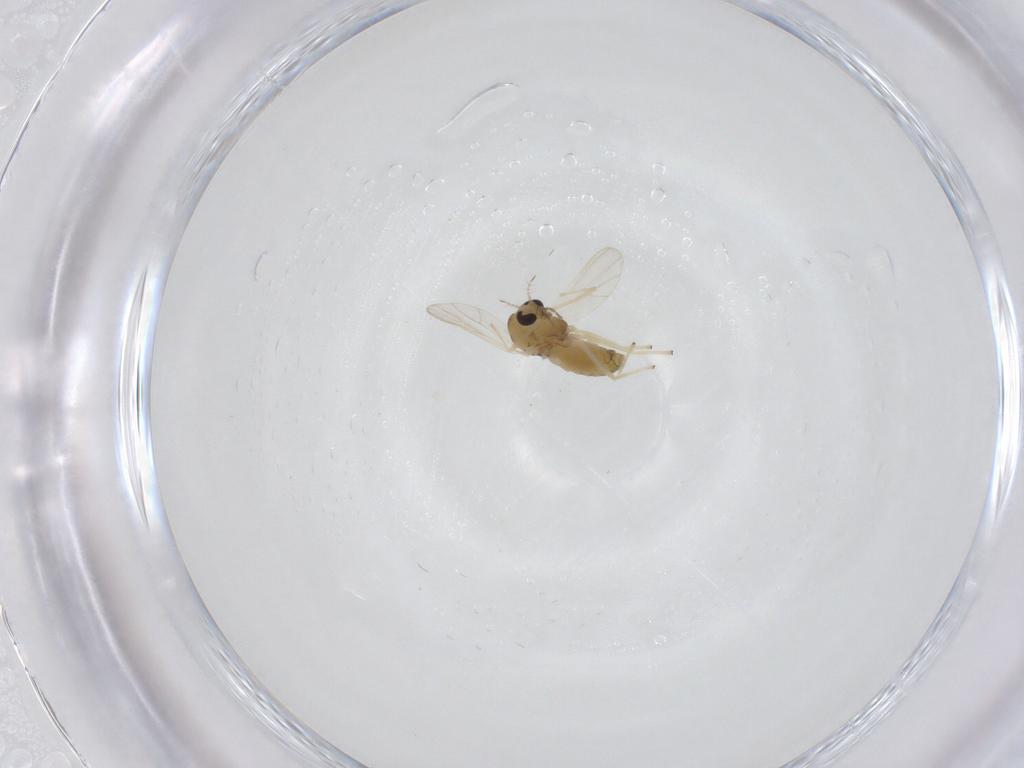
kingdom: Animalia
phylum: Arthropoda
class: Insecta
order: Diptera
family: Chironomidae
